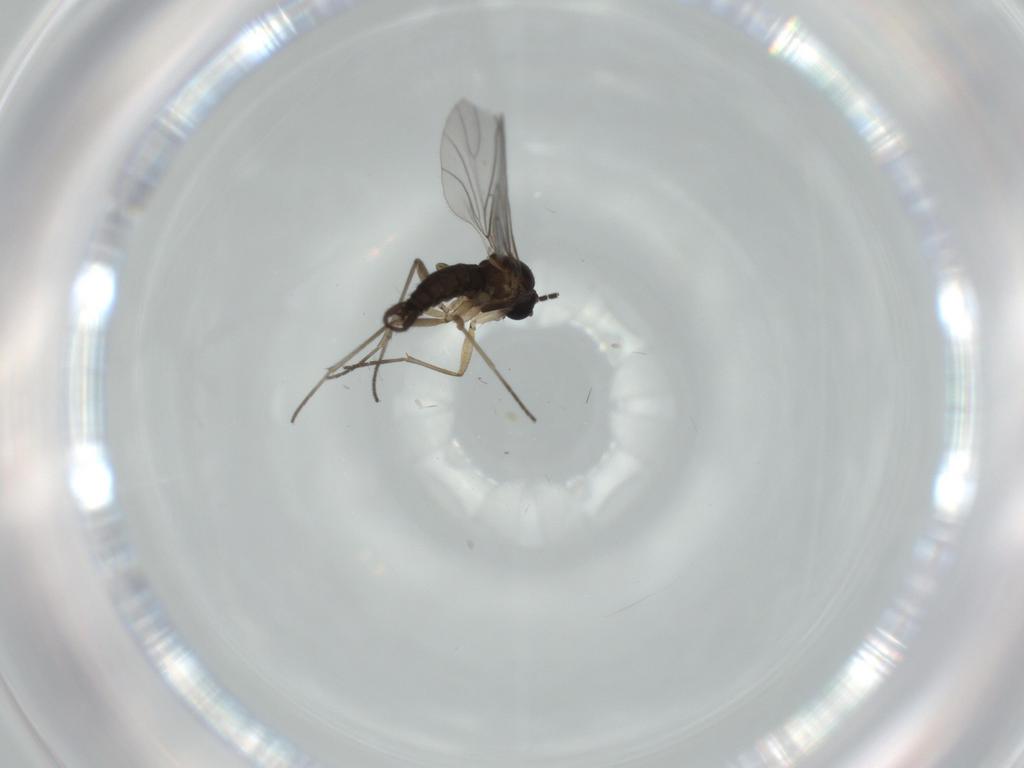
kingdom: Animalia
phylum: Arthropoda
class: Insecta
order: Diptera
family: Sciaridae
